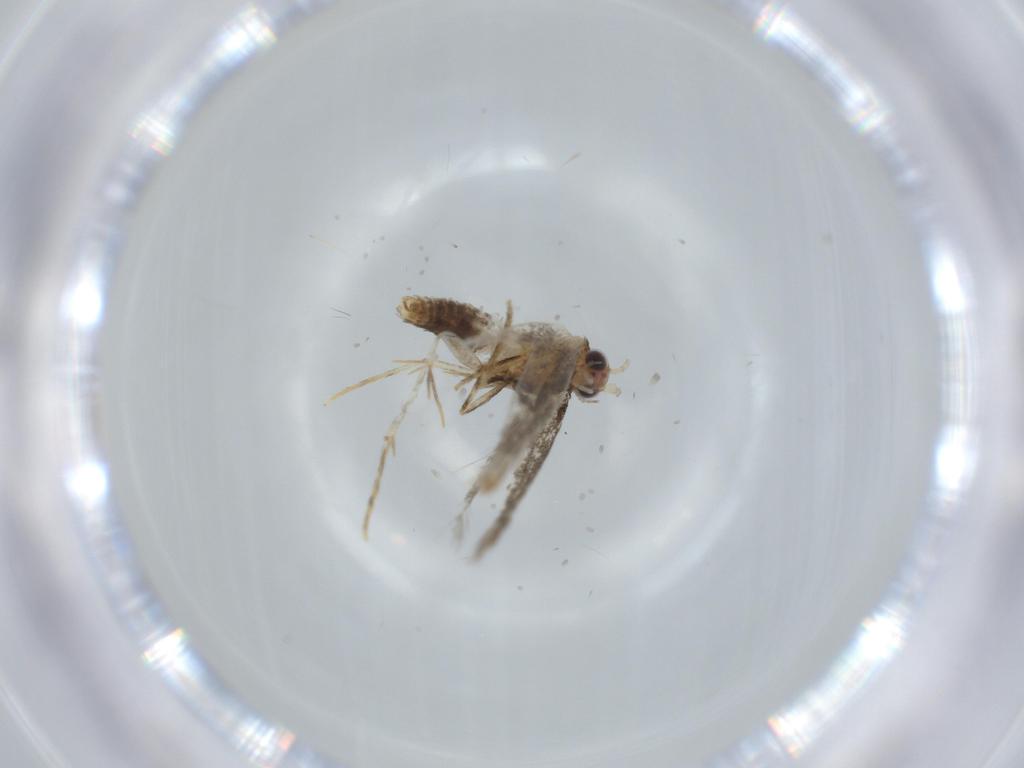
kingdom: Animalia
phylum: Arthropoda
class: Insecta
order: Lepidoptera
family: Tineidae
